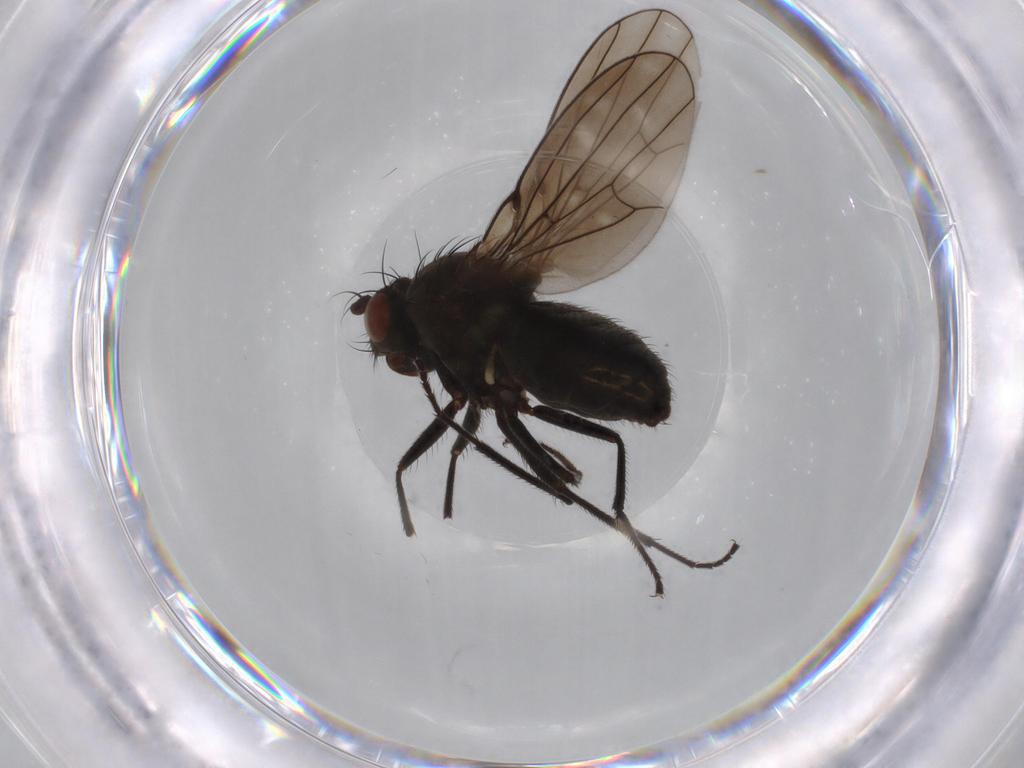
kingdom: Animalia
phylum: Arthropoda
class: Insecta
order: Diptera
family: Ephydridae
